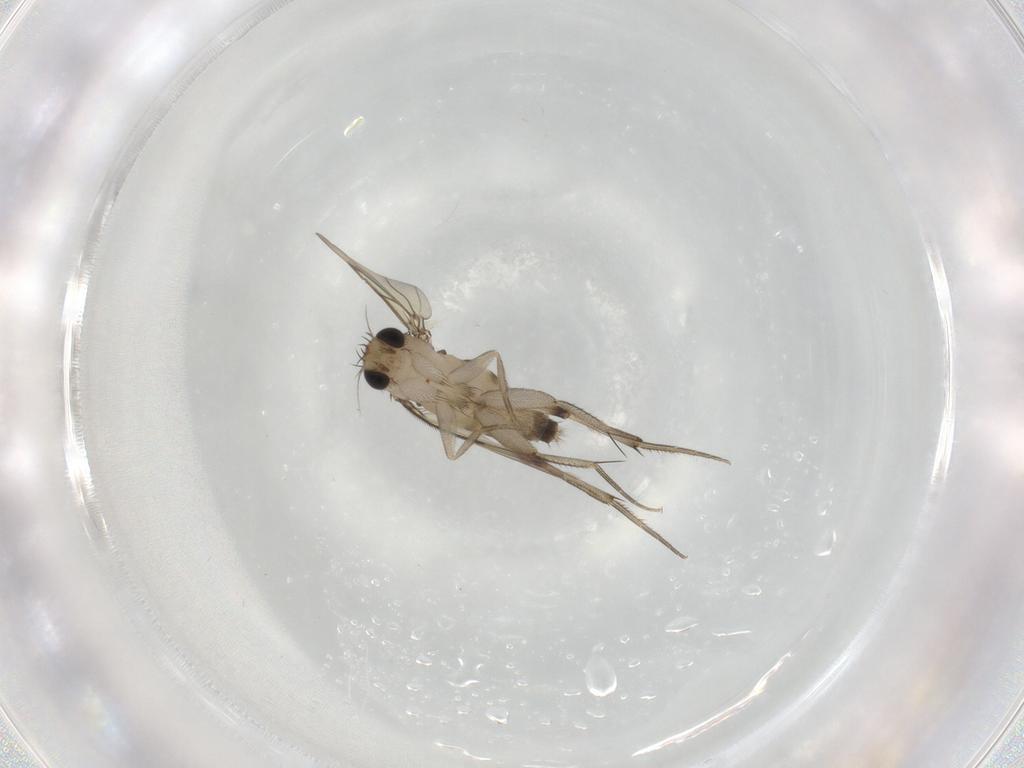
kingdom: Animalia
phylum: Arthropoda
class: Insecta
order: Diptera
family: Phoridae
